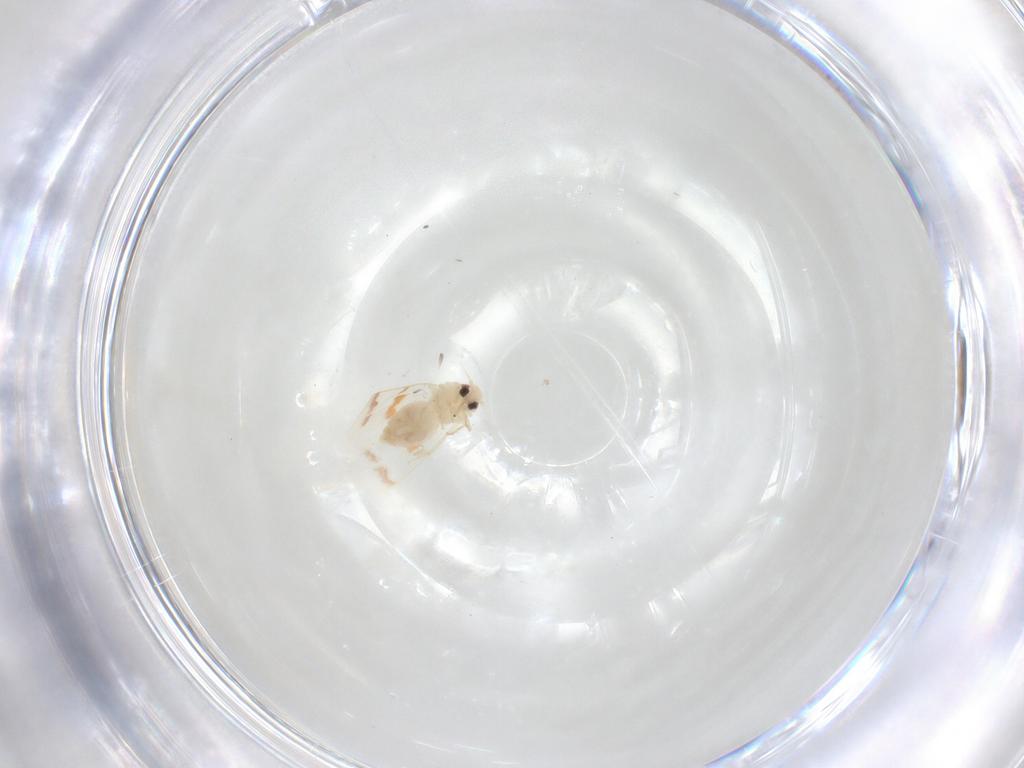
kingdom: Animalia
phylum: Arthropoda
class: Insecta
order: Hemiptera
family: Aleyrodidae
